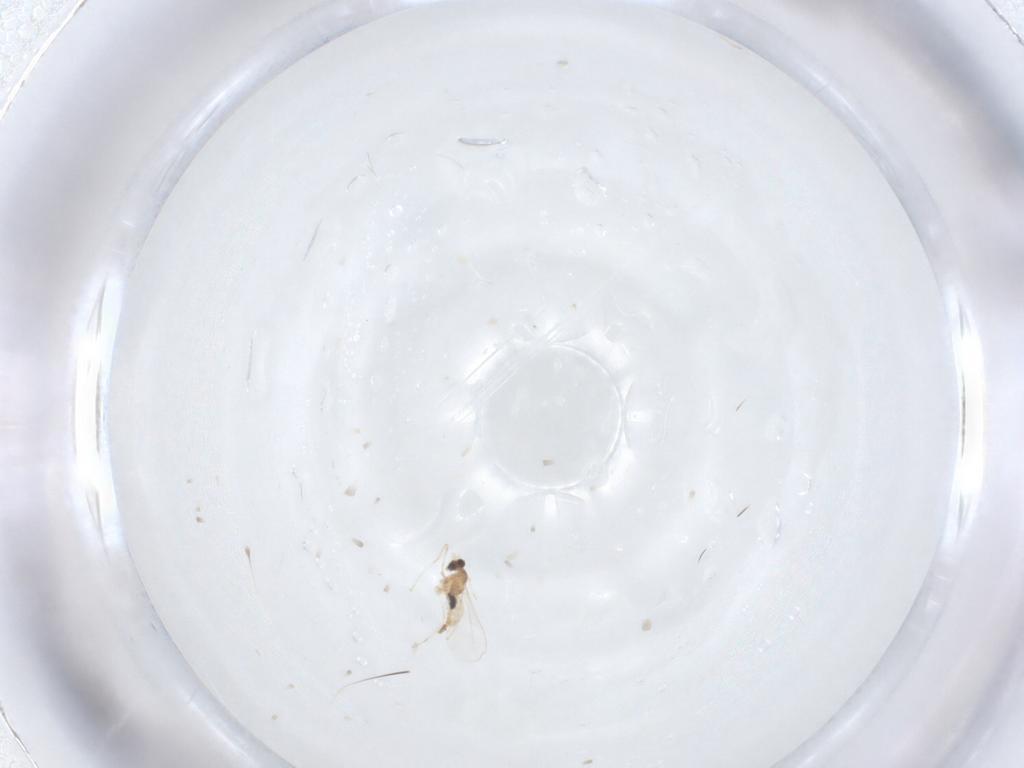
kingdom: Animalia
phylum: Arthropoda
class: Insecta
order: Diptera
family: Cecidomyiidae
